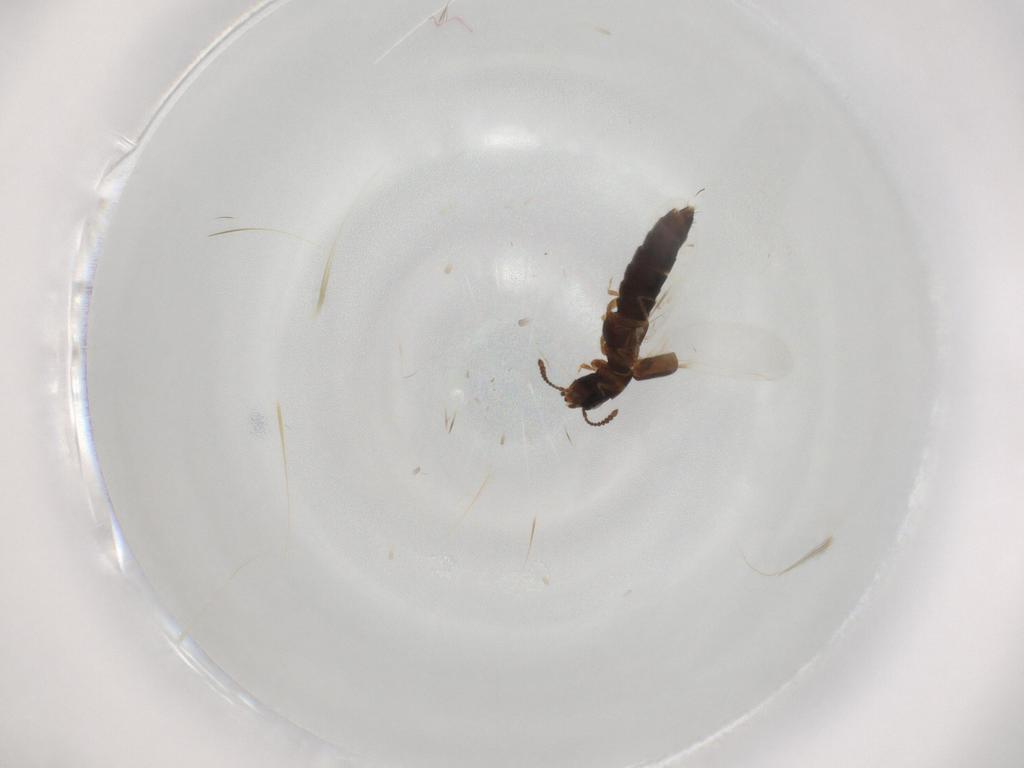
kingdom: Animalia
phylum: Arthropoda
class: Insecta
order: Coleoptera
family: Staphylinidae
